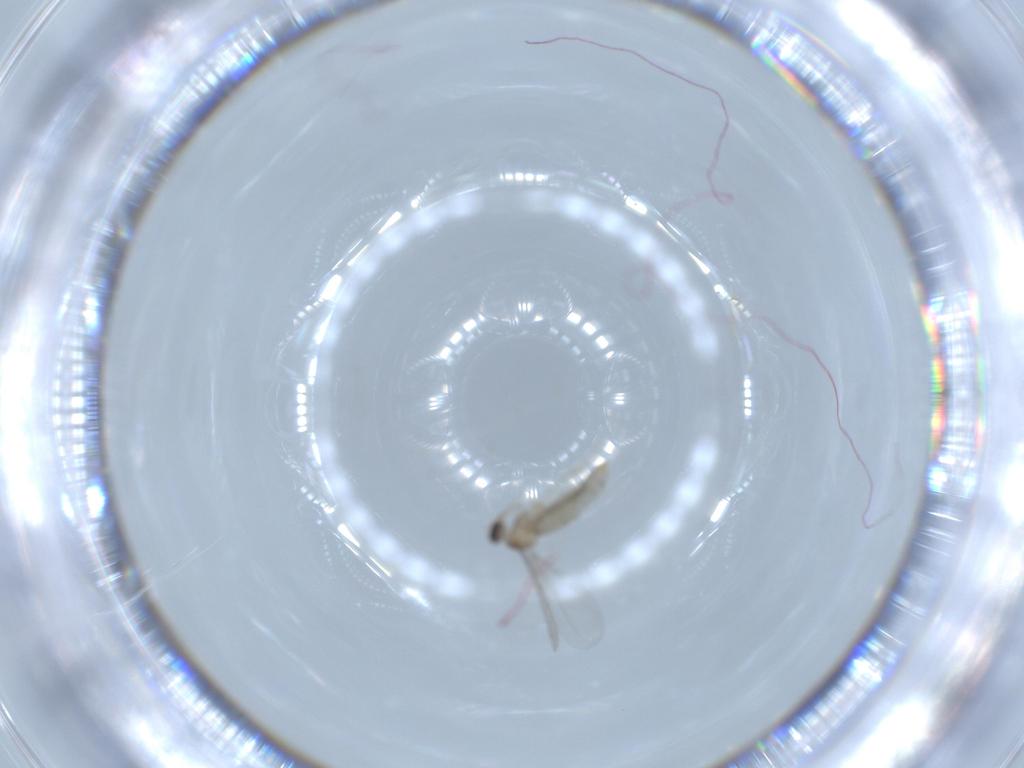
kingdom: Animalia
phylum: Arthropoda
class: Insecta
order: Diptera
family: Cecidomyiidae
